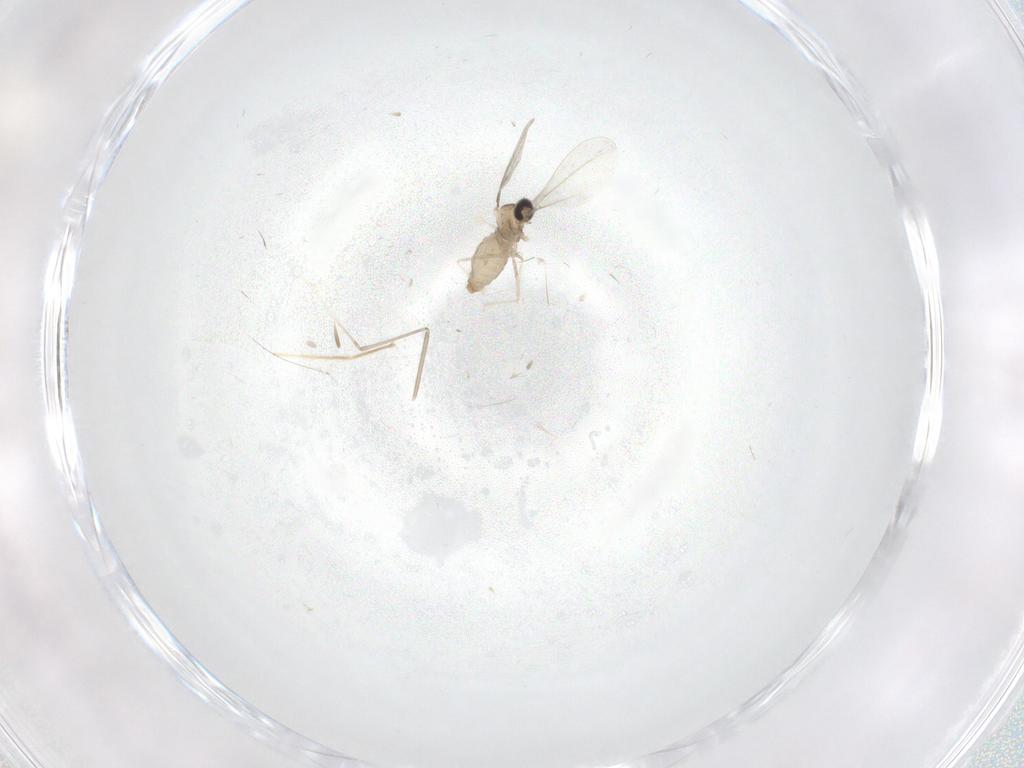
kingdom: Animalia
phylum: Arthropoda
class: Insecta
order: Diptera
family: Cecidomyiidae
